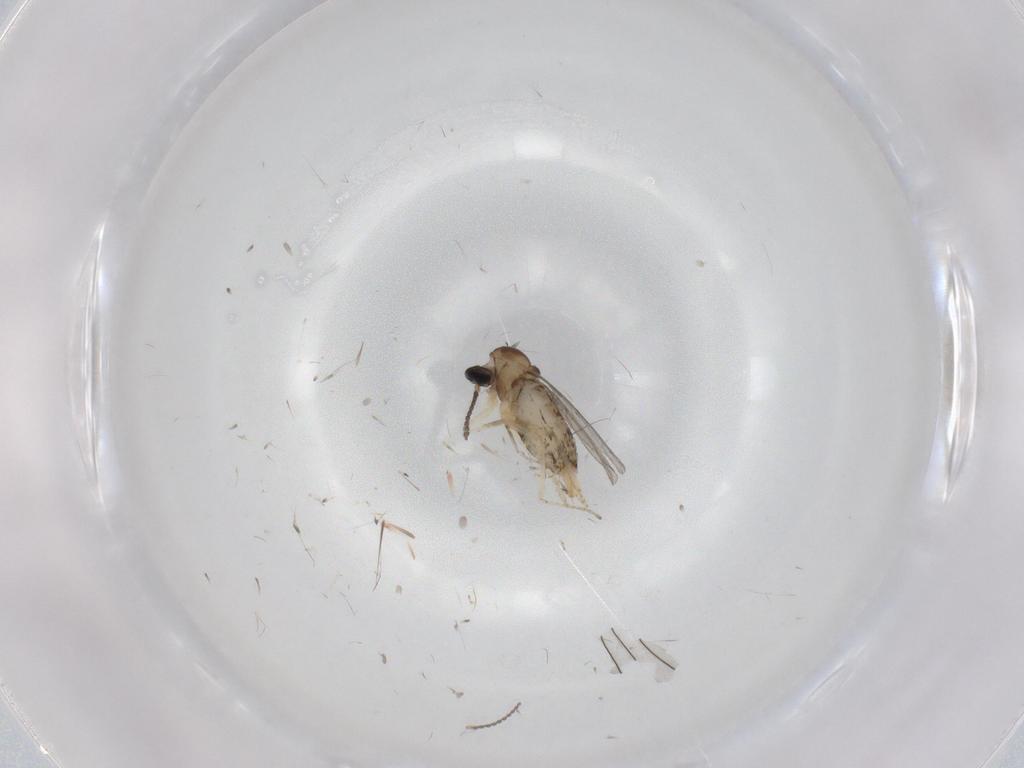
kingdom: Animalia
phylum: Arthropoda
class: Insecta
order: Diptera
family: Cecidomyiidae
